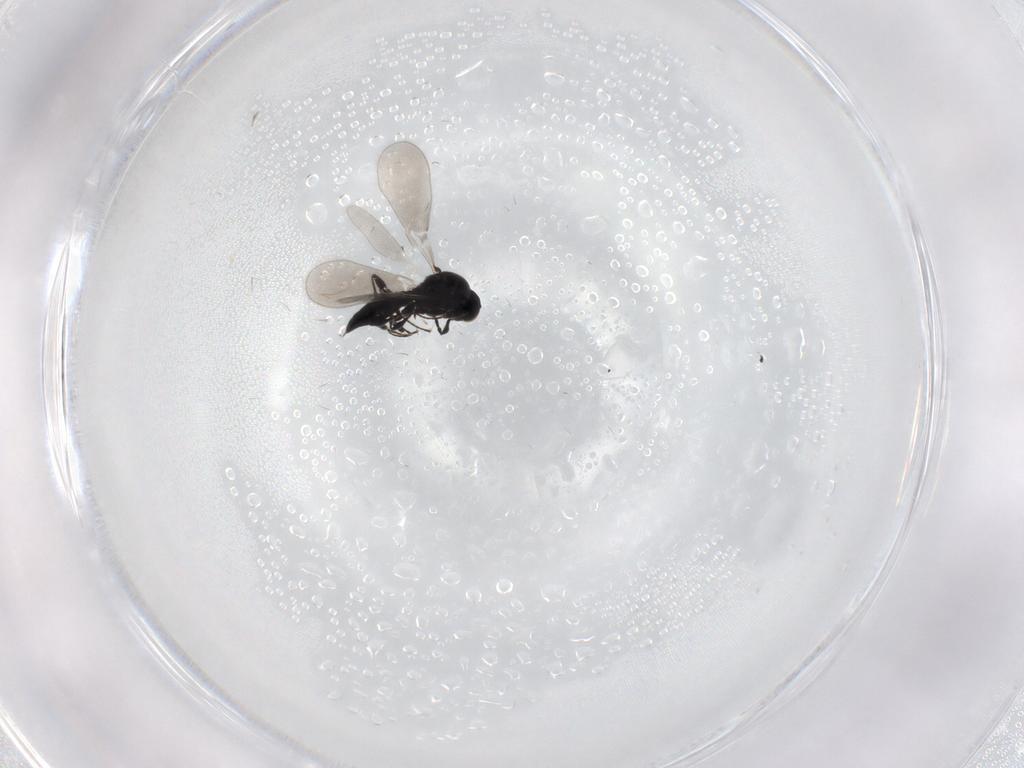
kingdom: Animalia
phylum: Arthropoda
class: Insecta
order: Hymenoptera
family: Platygastridae
